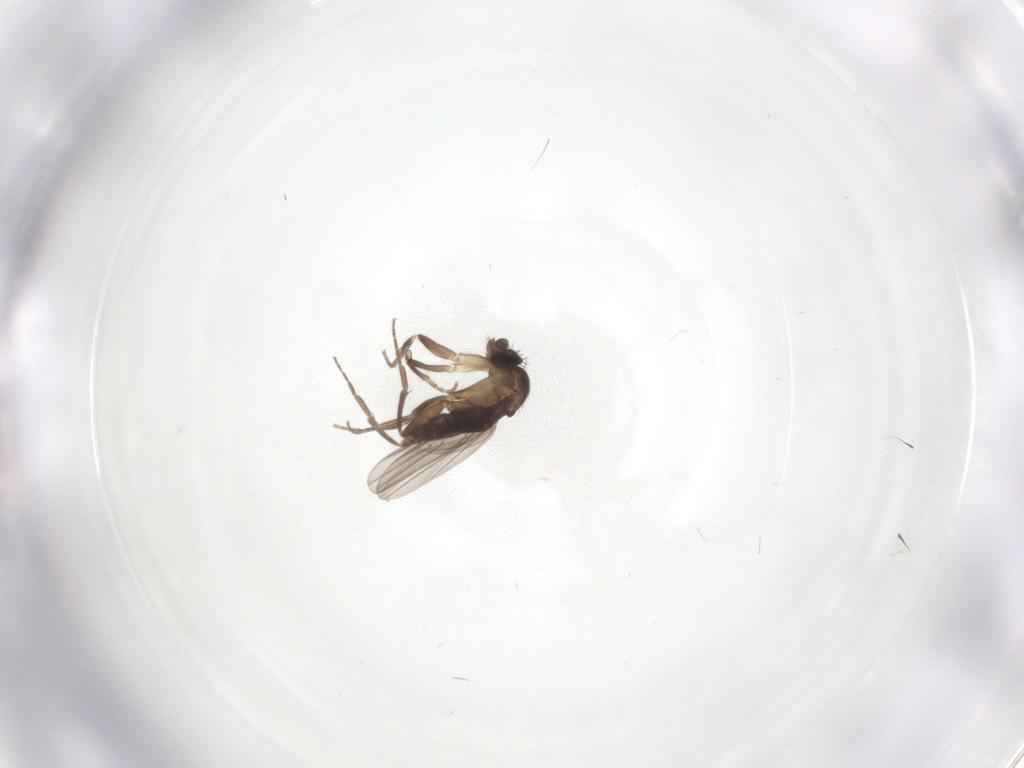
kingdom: Animalia
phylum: Arthropoda
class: Insecta
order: Diptera
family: Phoridae
